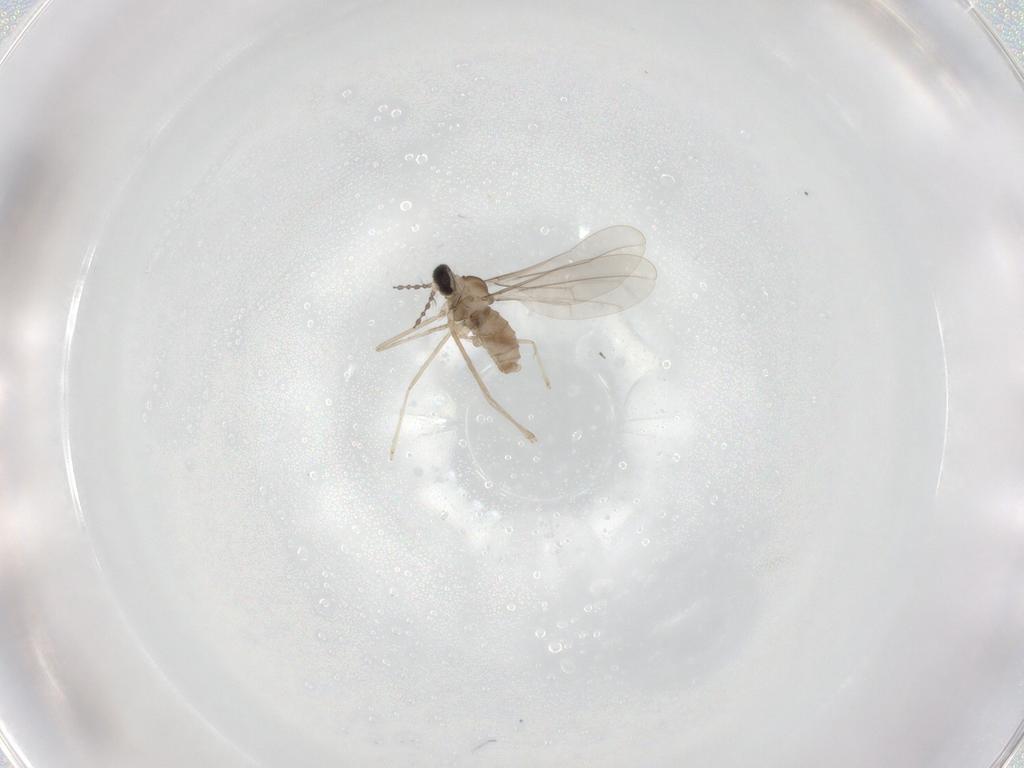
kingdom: Animalia
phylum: Arthropoda
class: Insecta
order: Diptera
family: Cecidomyiidae
